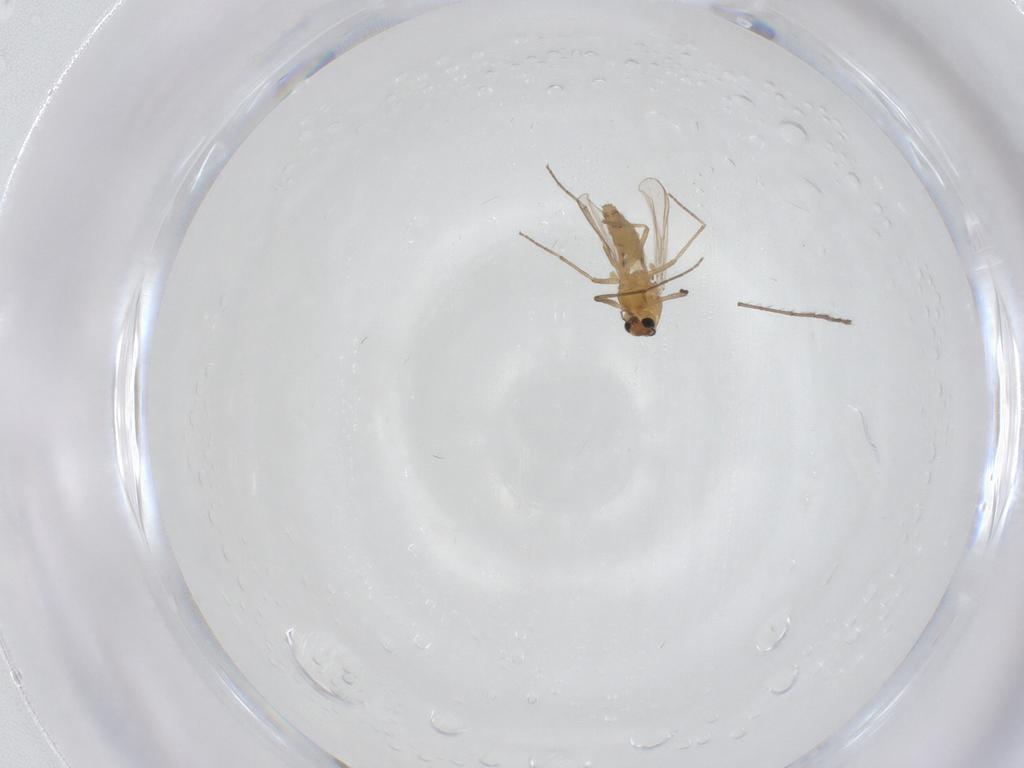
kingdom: Animalia
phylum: Arthropoda
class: Insecta
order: Diptera
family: Chironomidae
